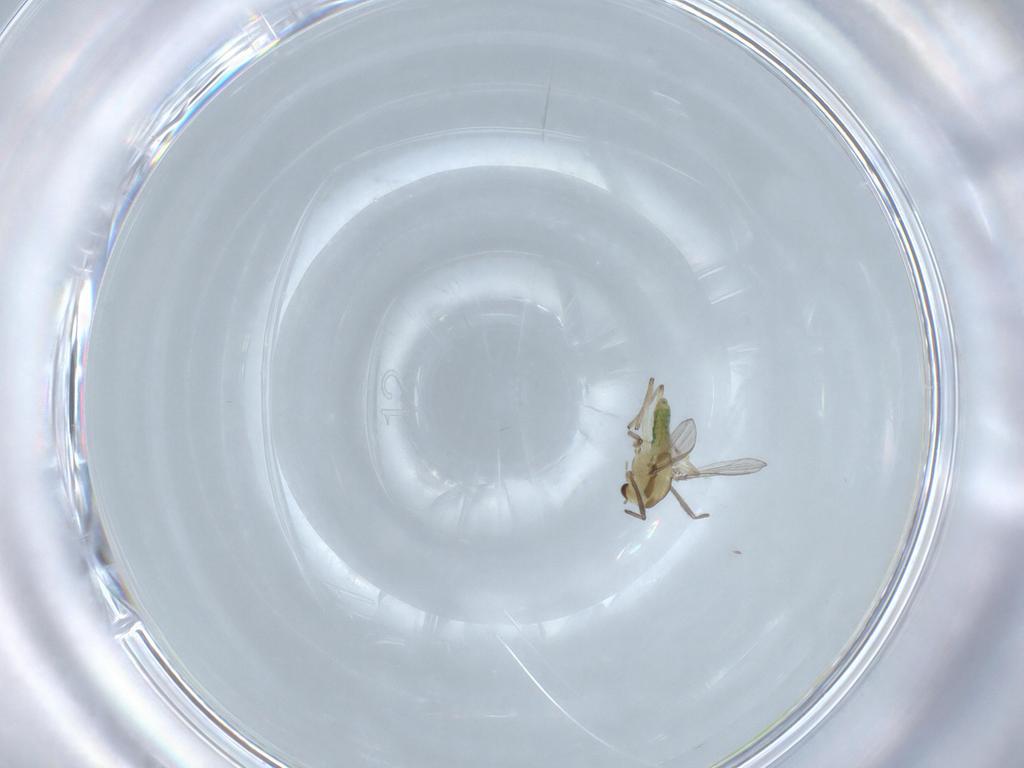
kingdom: Animalia
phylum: Arthropoda
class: Insecta
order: Diptera
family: Chironomidae
